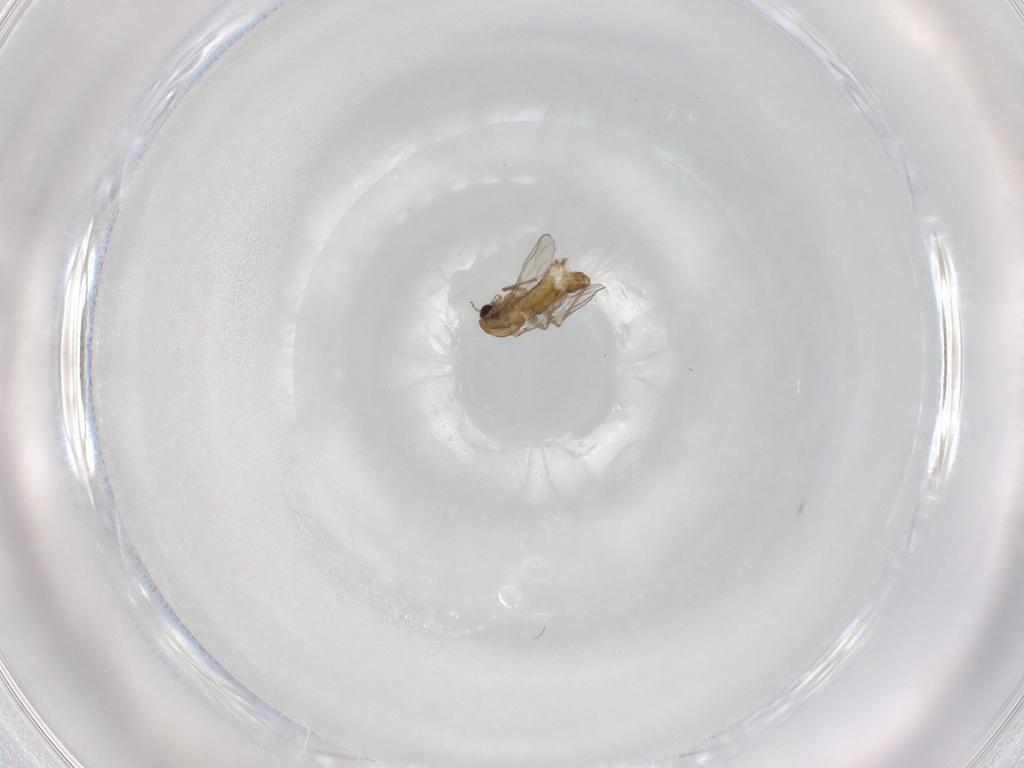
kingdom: Animalia
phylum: Arthropoda
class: Insecta
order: Diptera
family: Chironomidae
